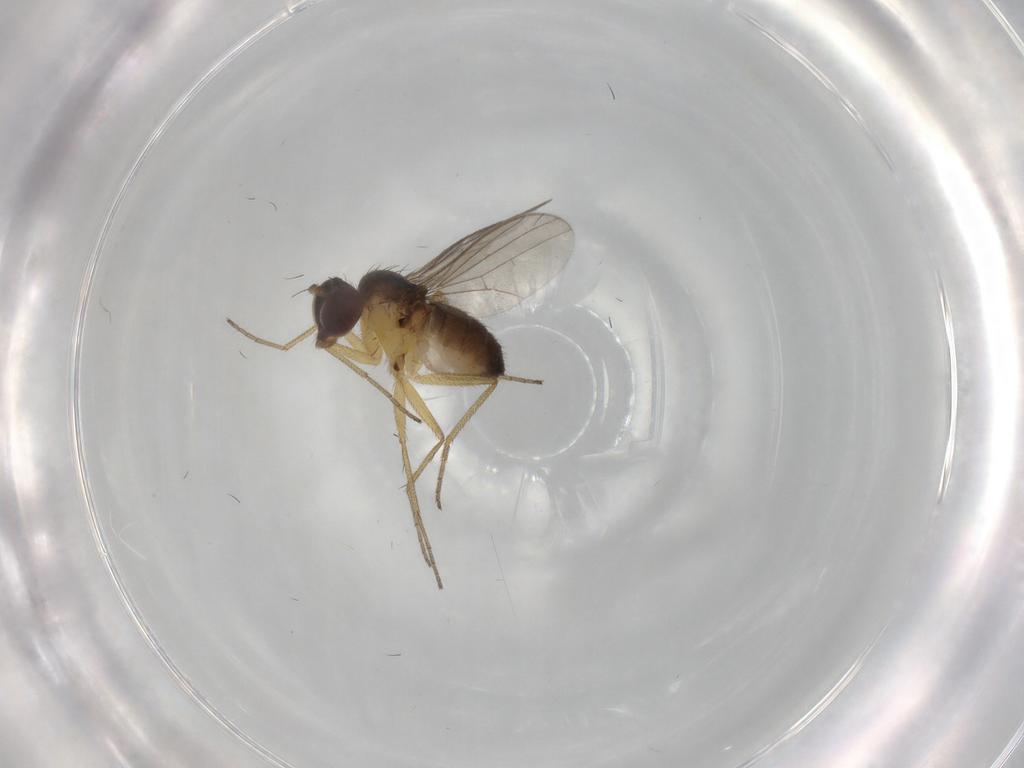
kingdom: Animalia
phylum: Arthropoda
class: Insecta
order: Diptera
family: Dolichopodidae
